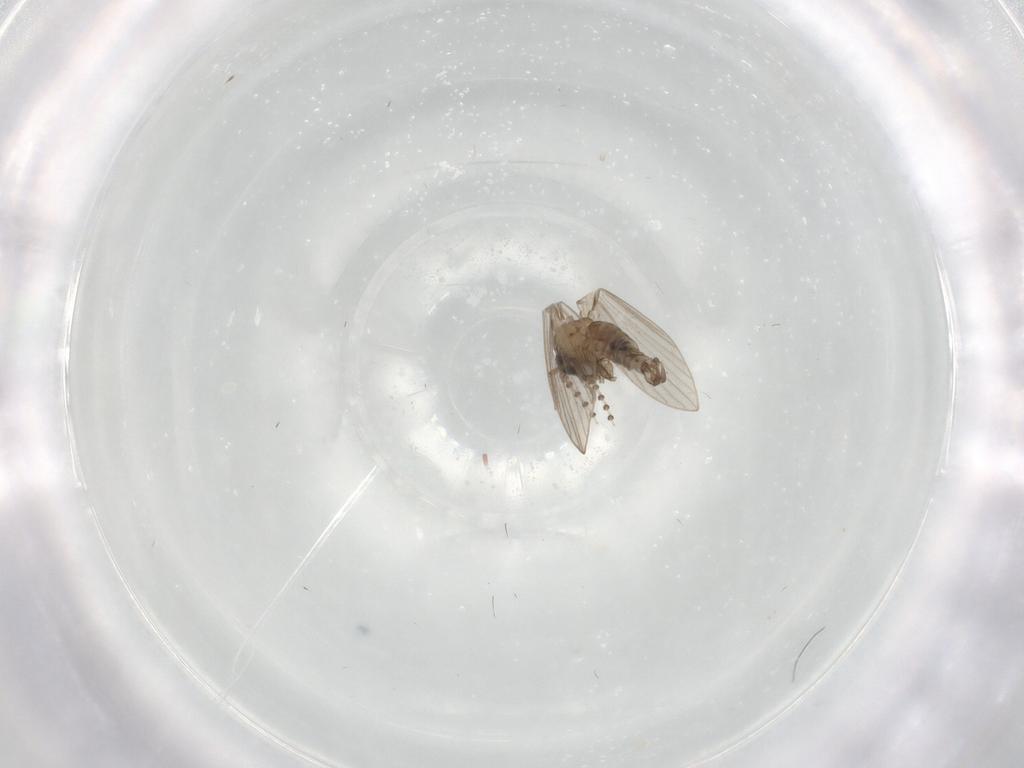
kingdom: Animalia
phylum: Arthropoda
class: Insecta
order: Diptera
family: Psychodidae
